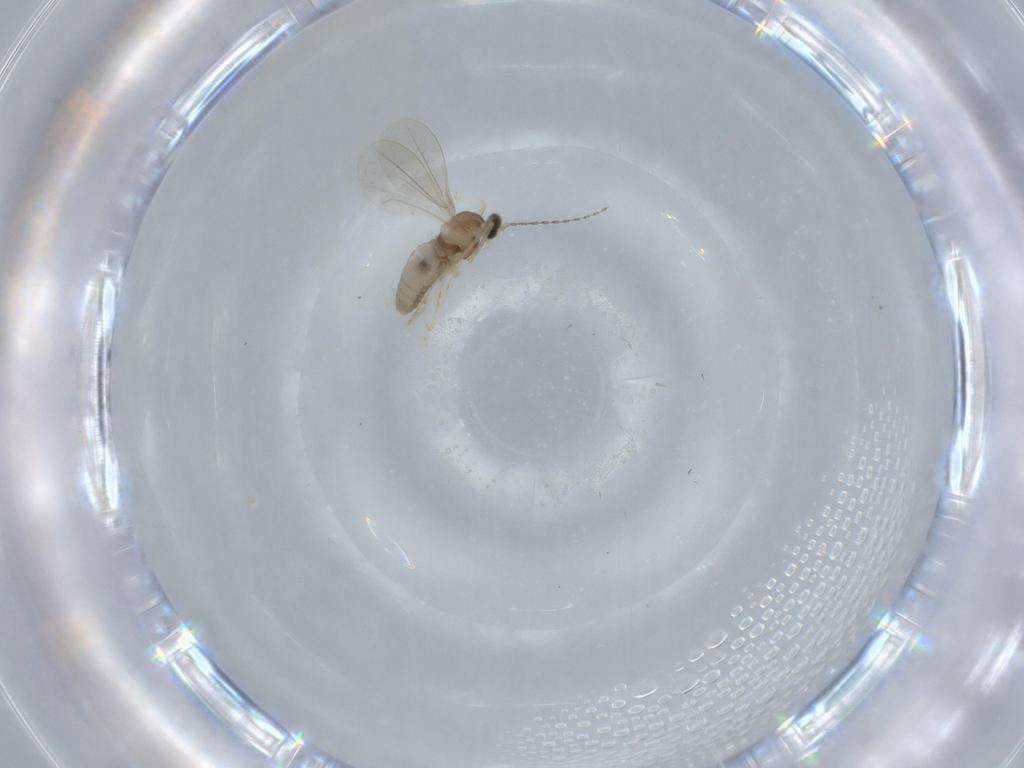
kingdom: Animalia
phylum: Arthropoda
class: Insecta
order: Diptera
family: Cecidomyiidae
